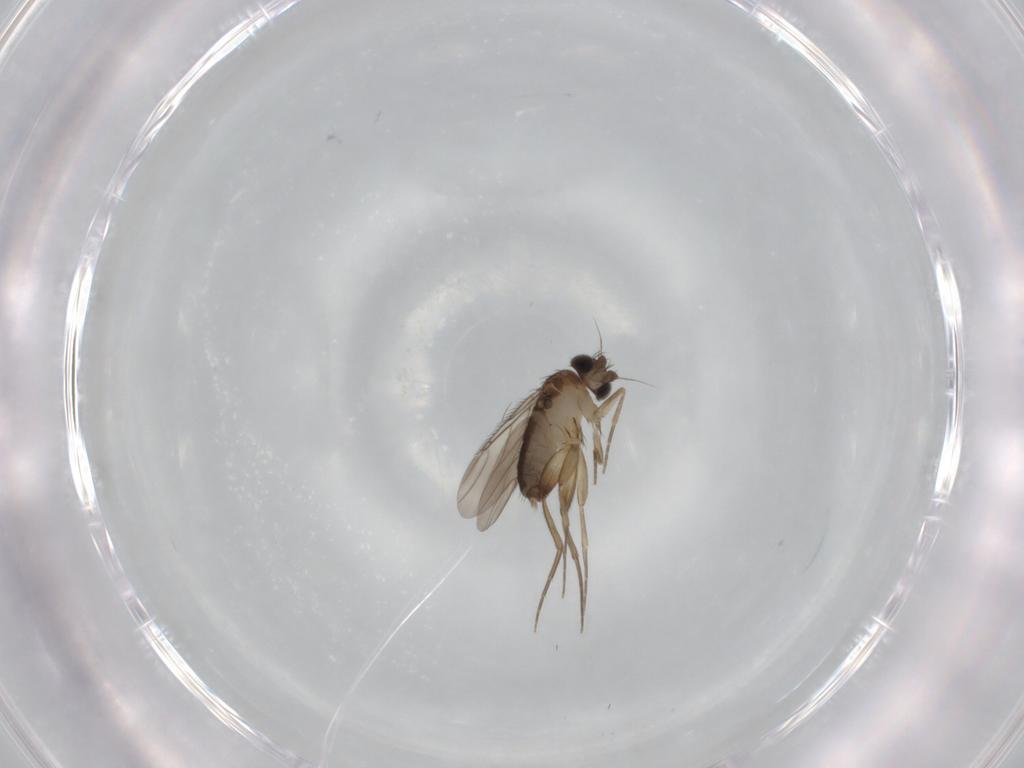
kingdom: Animalia
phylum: Arthropoda
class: Insecta
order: Diptera
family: Phoridae
